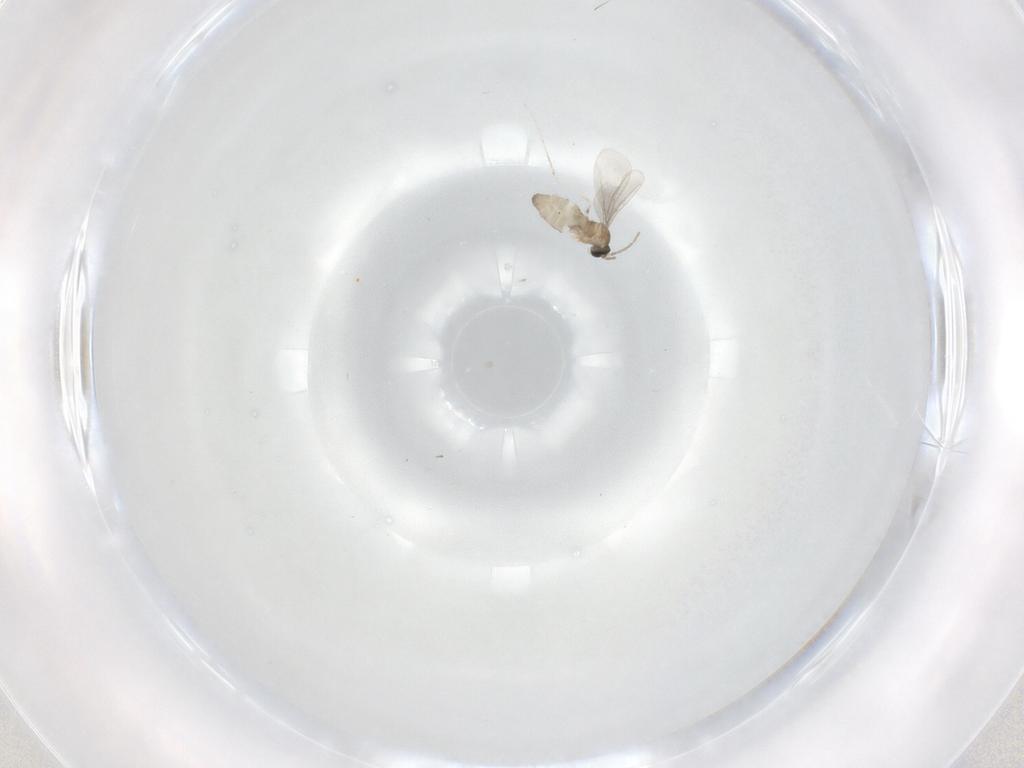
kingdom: Animalia
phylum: Arthropoda
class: Insecta
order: Diptera
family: Cecidomyiidae
